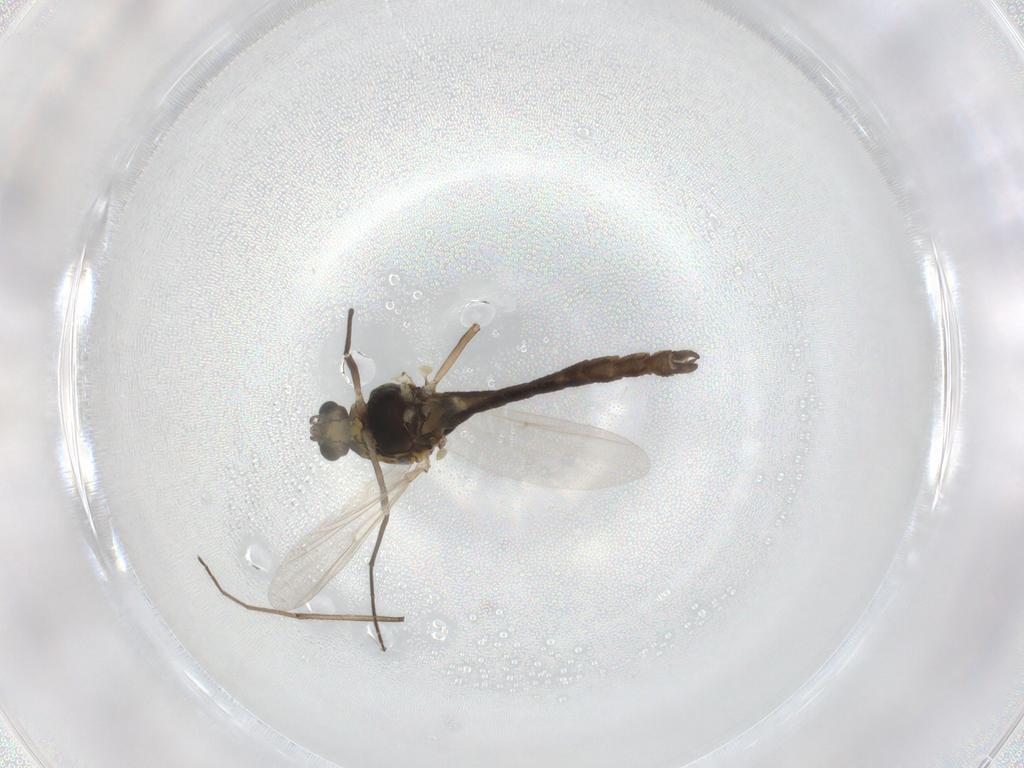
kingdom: Animalia
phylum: Arthropoda
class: Insecta
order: Diptera
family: Chironomidae
